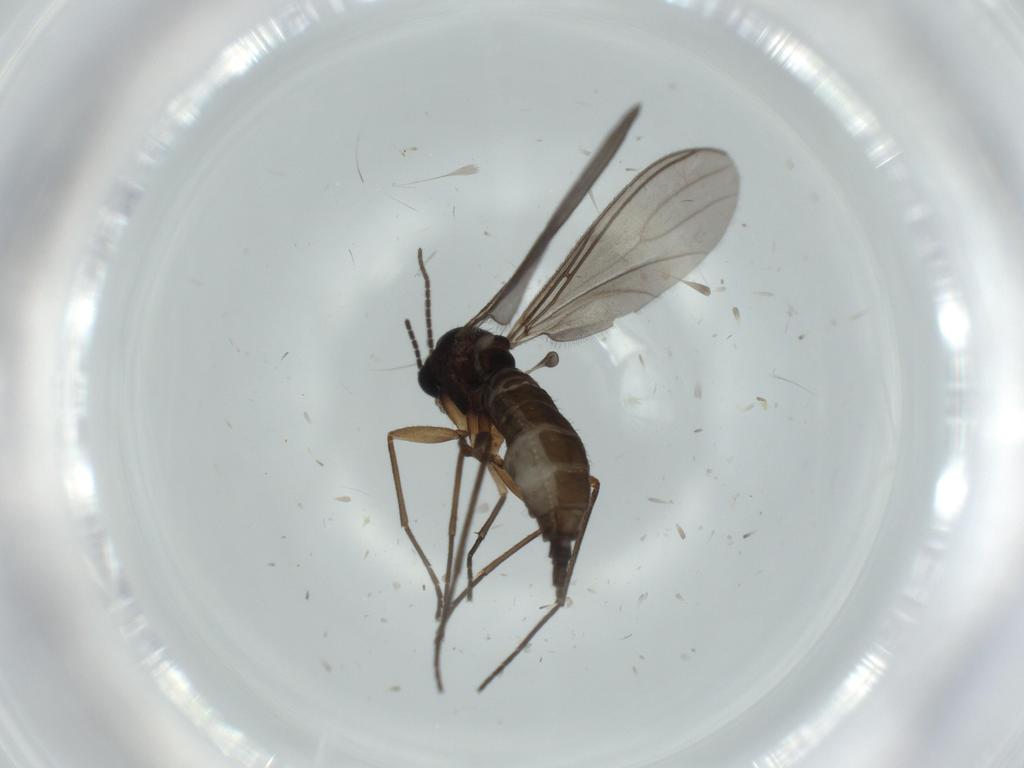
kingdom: Animalia
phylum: Arthropoda
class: Insecta
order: Diptera
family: Sciaridae
